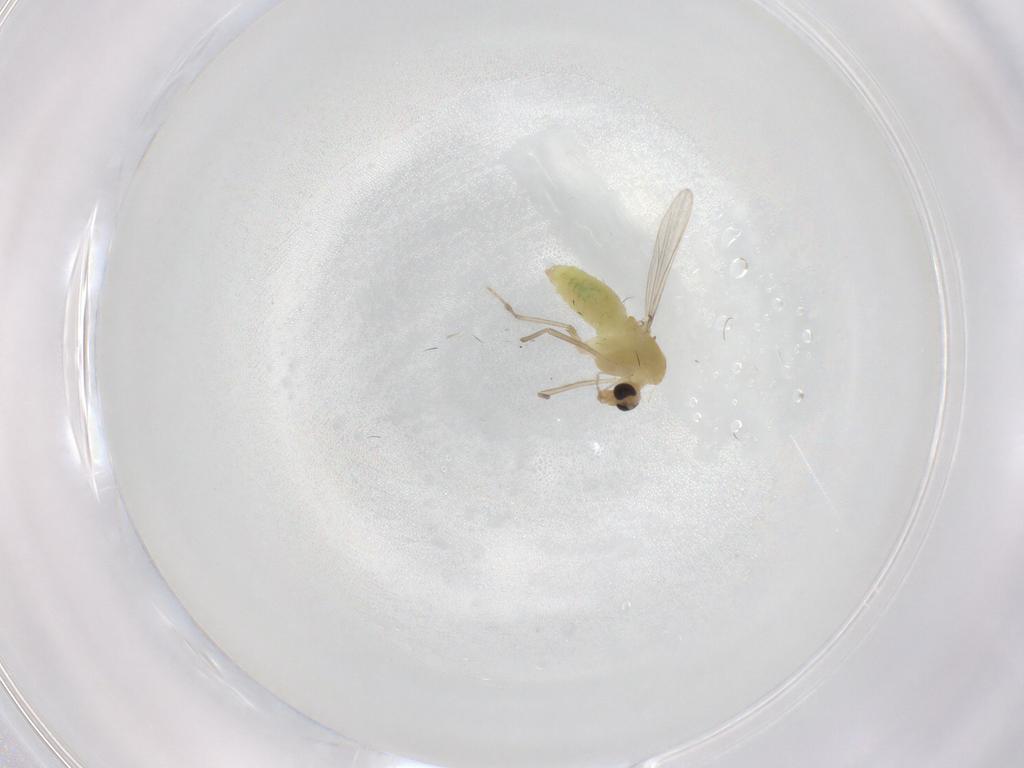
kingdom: Animalia
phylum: Arthropoda
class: Insecta
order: Diptera
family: Chironomidae
